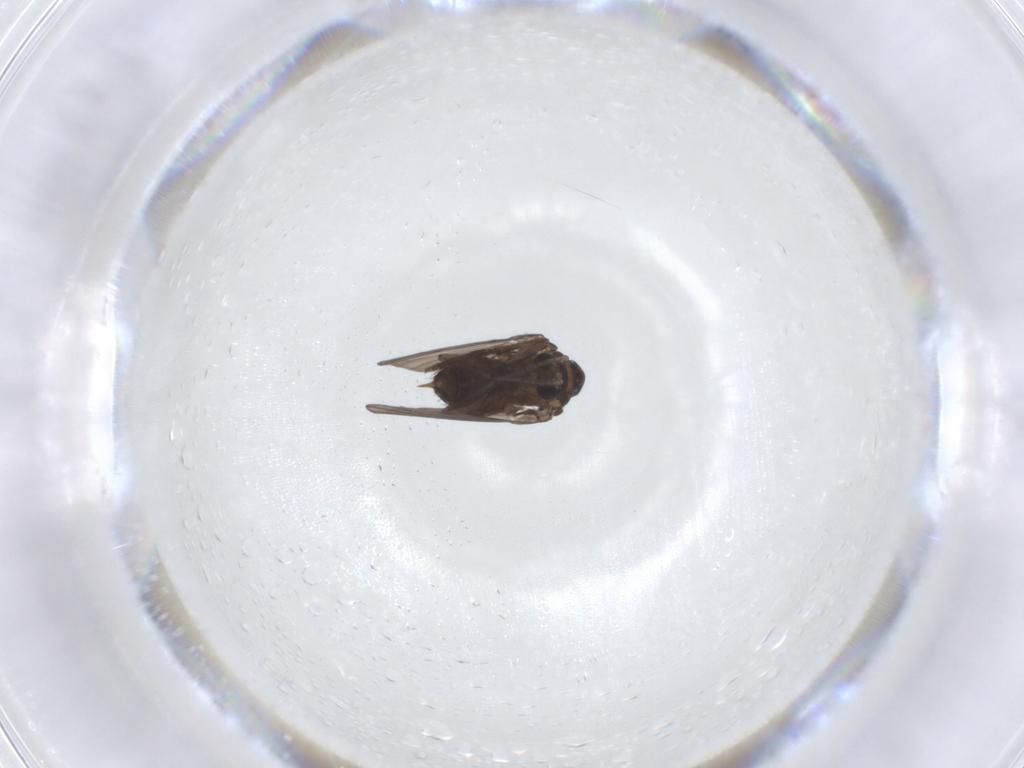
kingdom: Animalia
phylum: Arthropoda
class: Insecta
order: Diptera
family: Psychodidae
